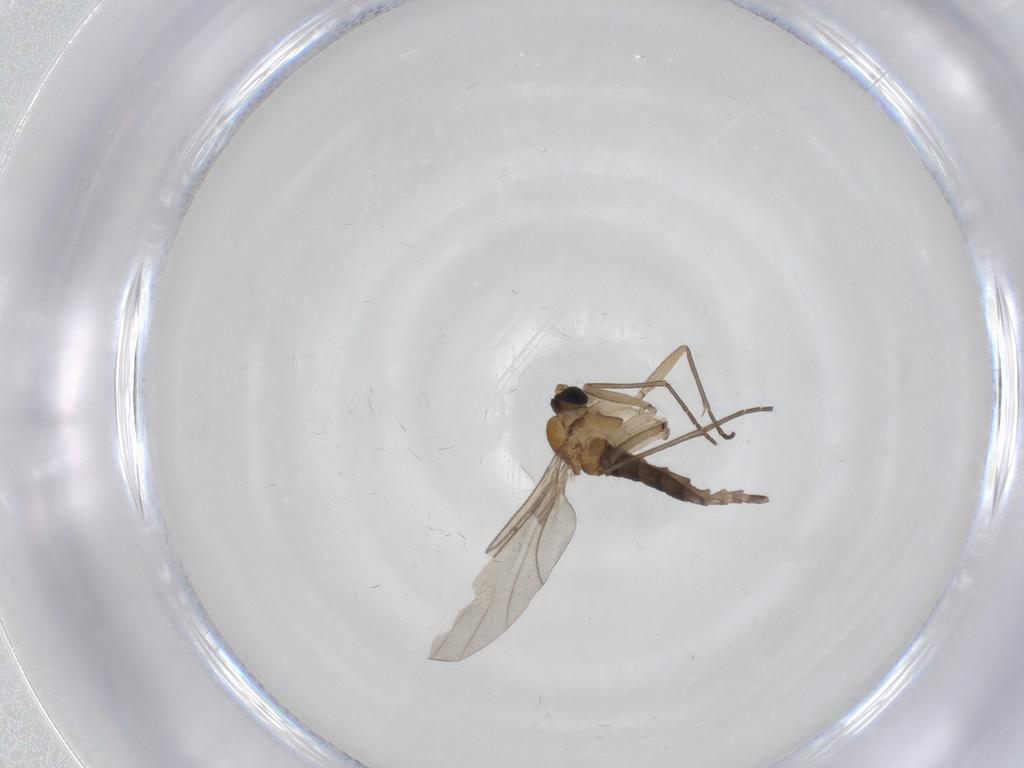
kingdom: Animalia
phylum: Arthropoda
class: Insecta
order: Diptera
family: Sciaridae
